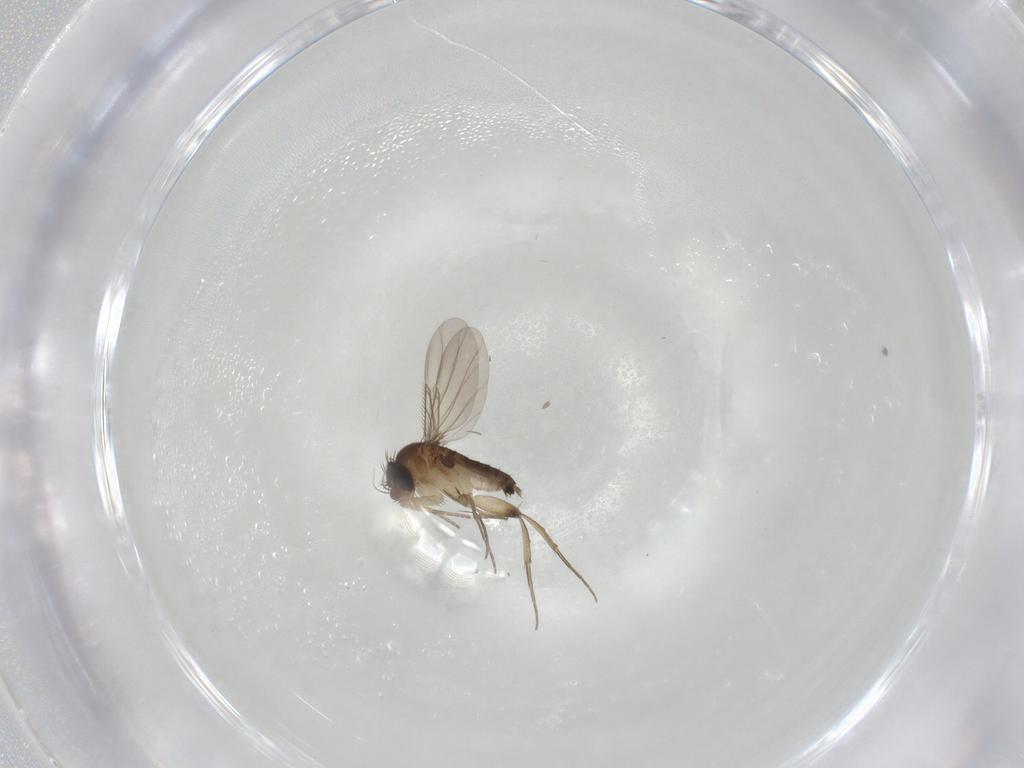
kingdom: Animalia
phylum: Arthropoda
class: Insecta
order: Diptera
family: Phoridae
